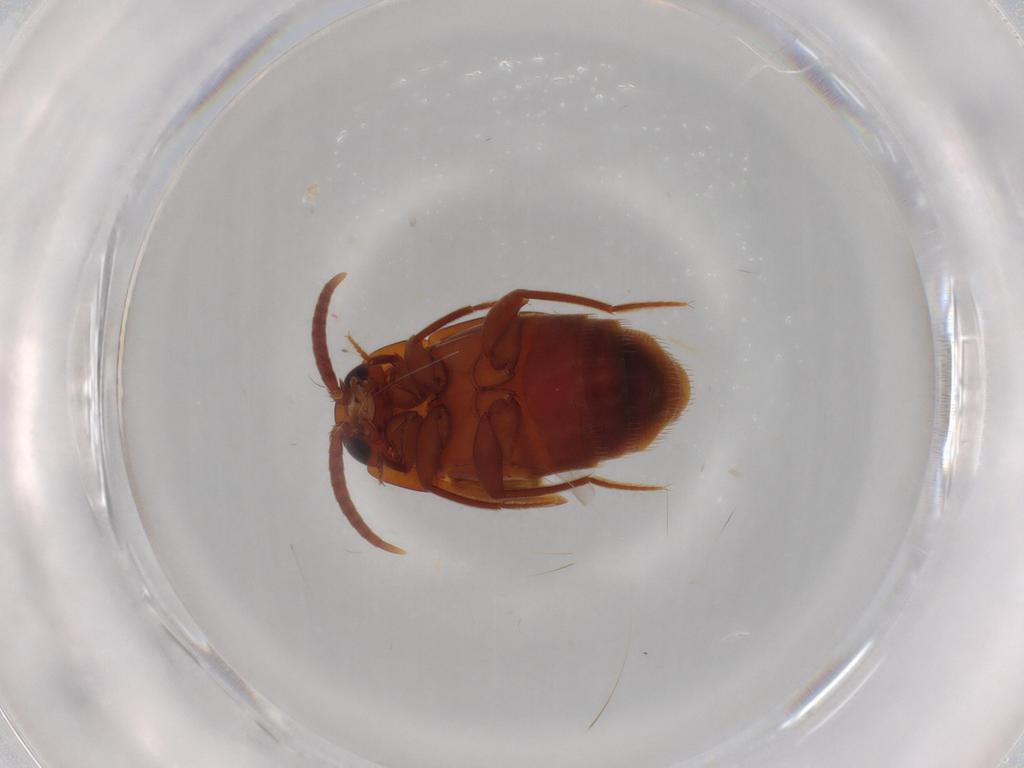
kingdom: Animalia
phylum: Arthropoda
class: Insecta
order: Coleoptera
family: Staphylinidae
